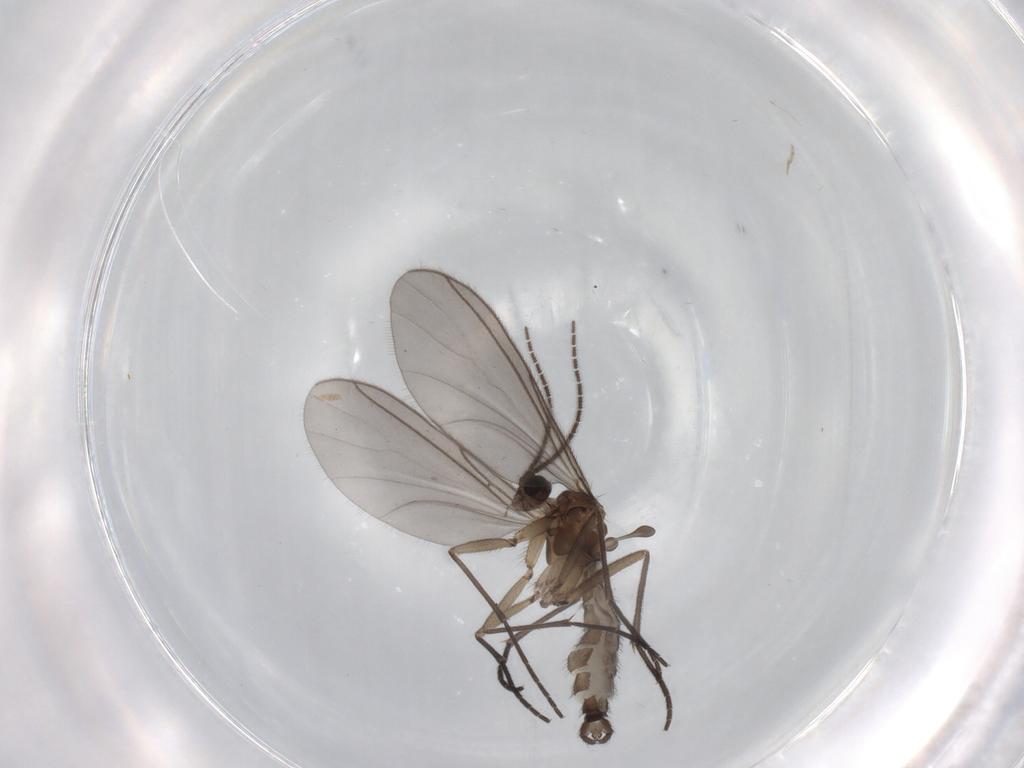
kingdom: Animalia
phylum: Arthropoda
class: Insecta
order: Diptera
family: Sciaridae
